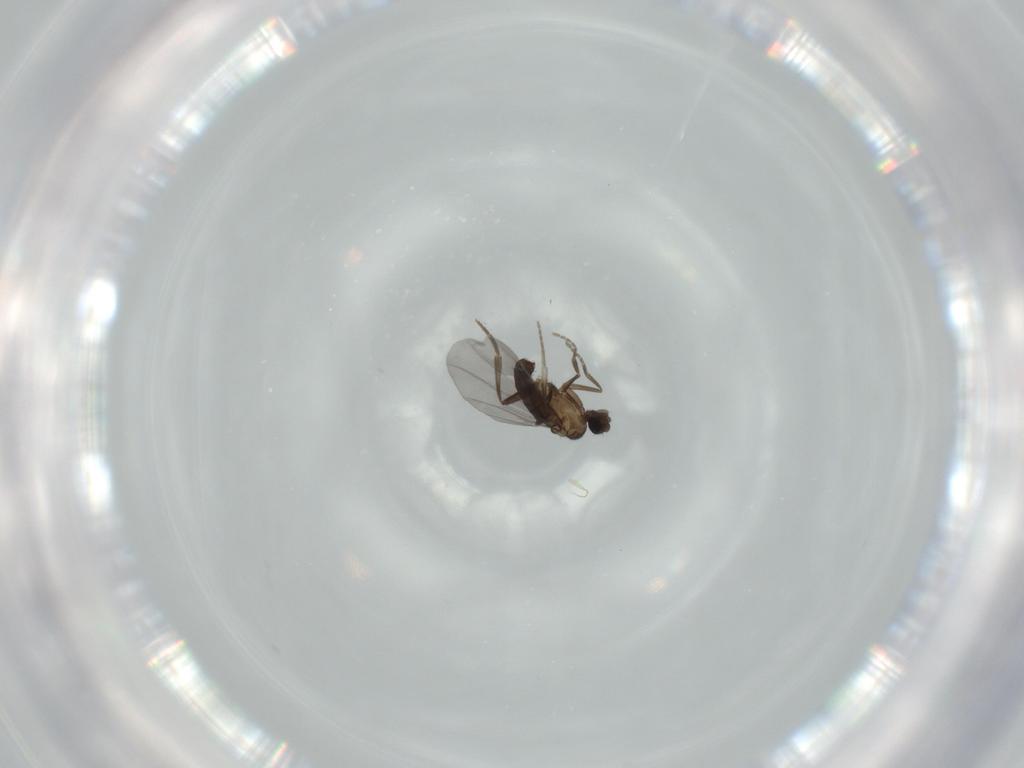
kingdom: Animalia
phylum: Arthropoda
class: Insecta
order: Diptera
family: Phoridae
